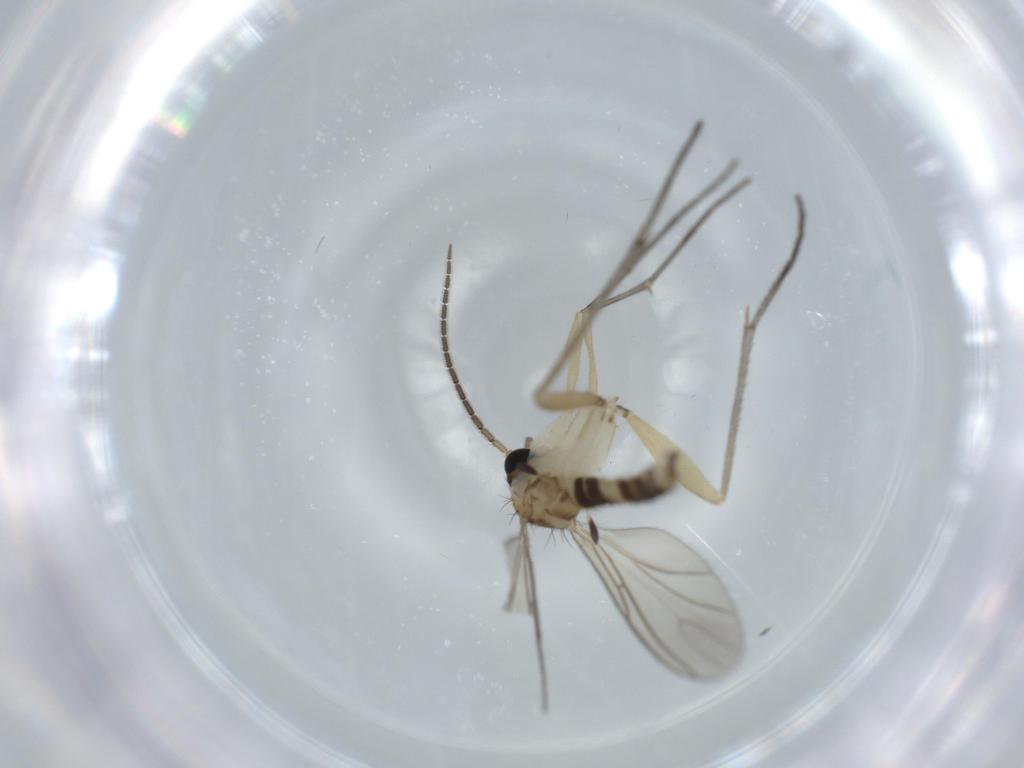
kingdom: Animalia
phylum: Arthropoda
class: Insecta
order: Diptera
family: Sciaridae
